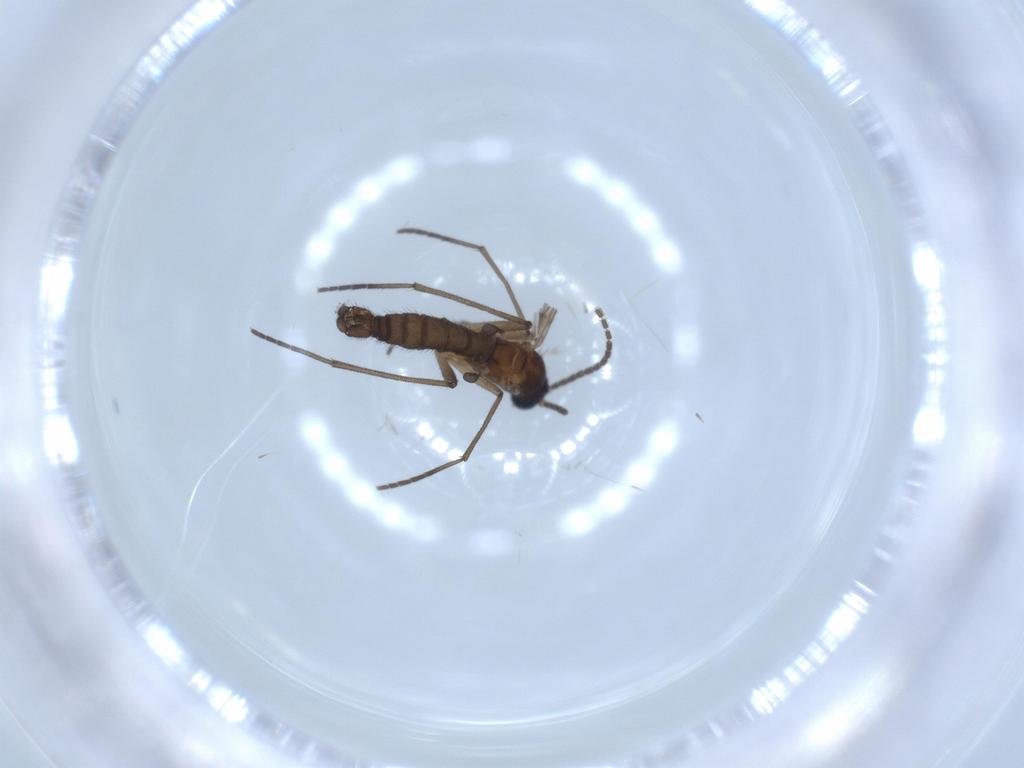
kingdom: Animalia
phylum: Arthropoda
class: Insecta
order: Diptera
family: Sciaridae
